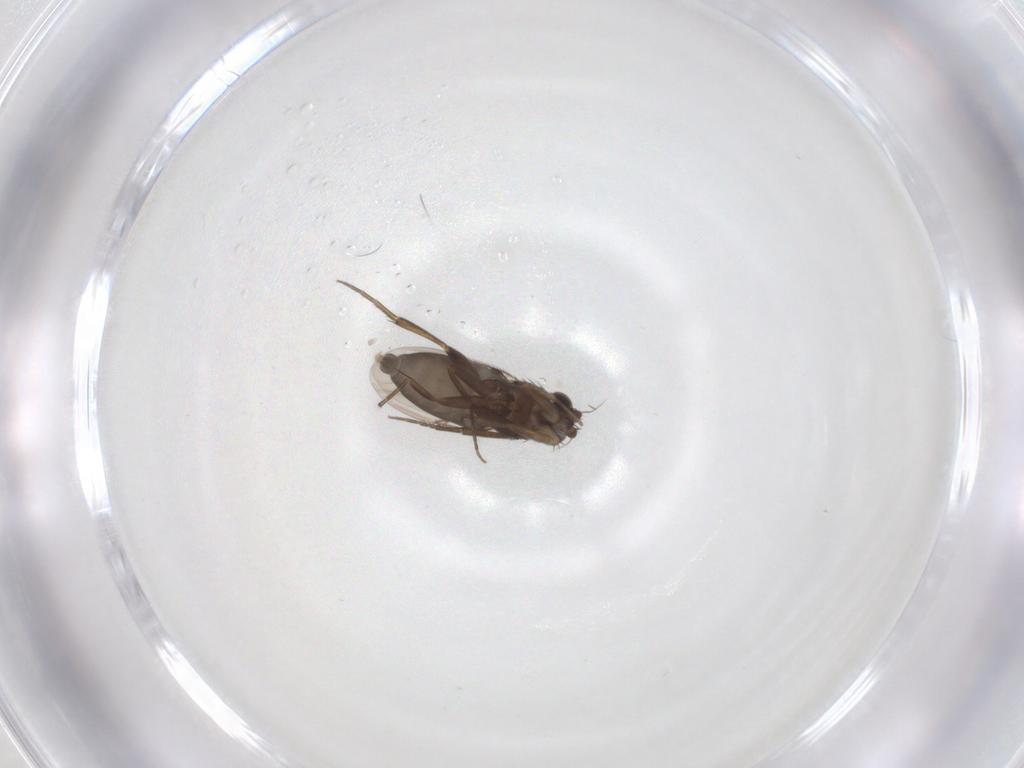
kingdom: Animalia
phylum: Arthropoda
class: Insecta
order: Diptera
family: Phoridae
